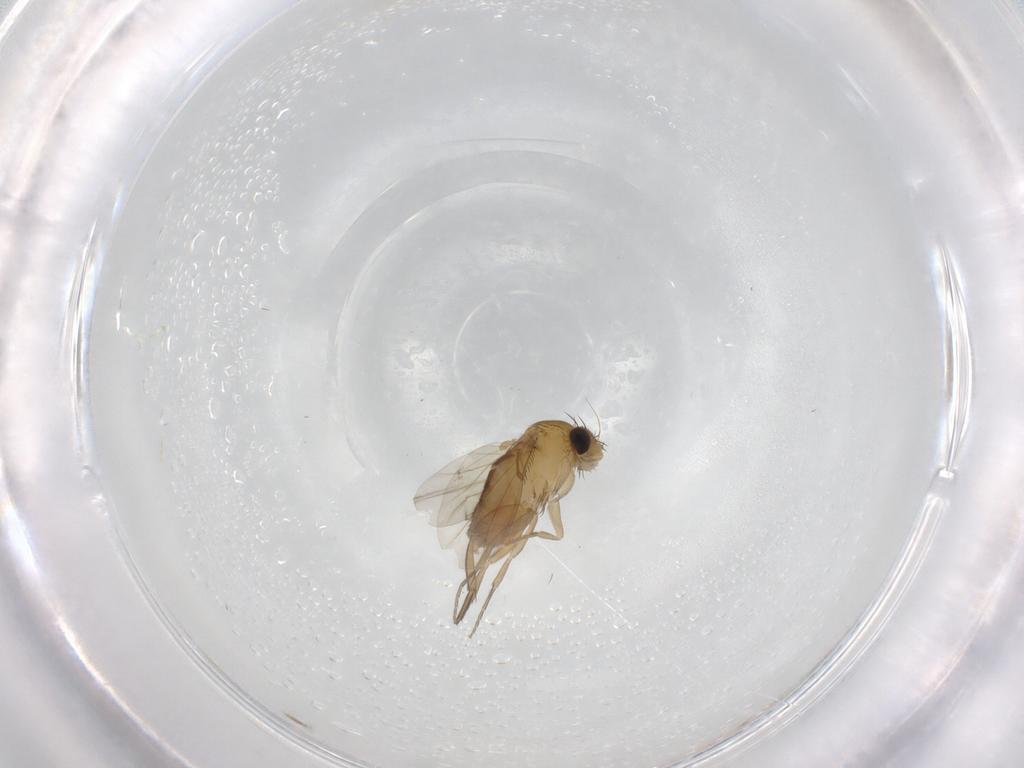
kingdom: Animalia
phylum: Arthropoda
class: Insecta
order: Diptera
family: Phoridae
